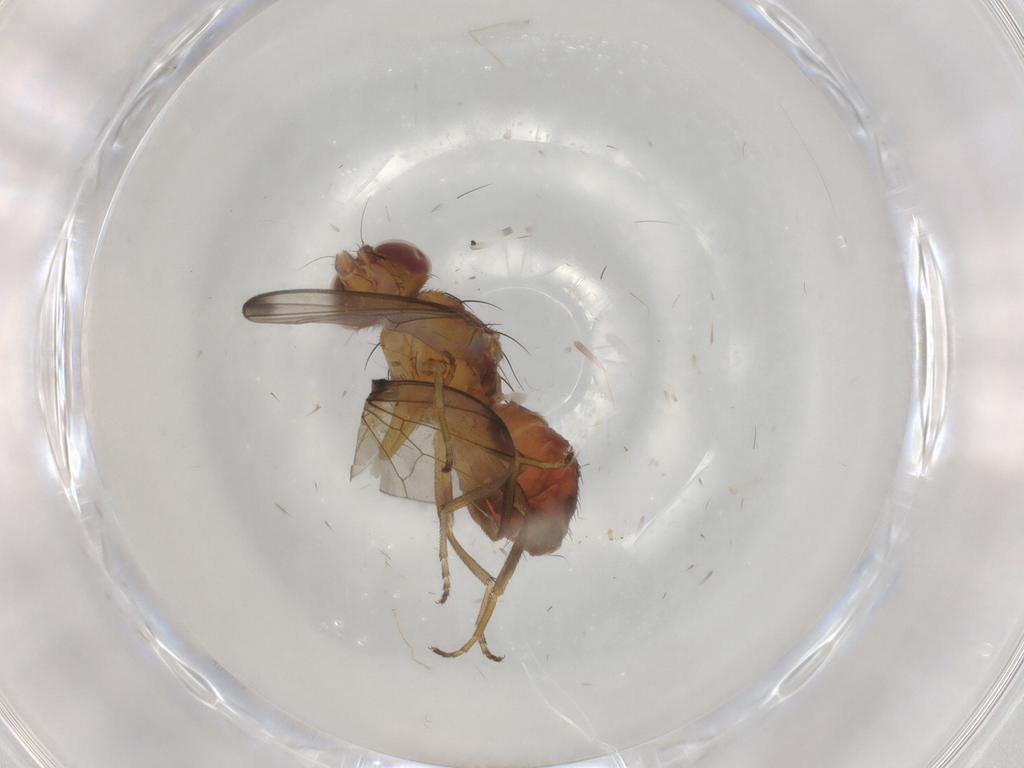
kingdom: Animalia
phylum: Arthropoda
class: Insecta
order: Diptera
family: Piophilidae
